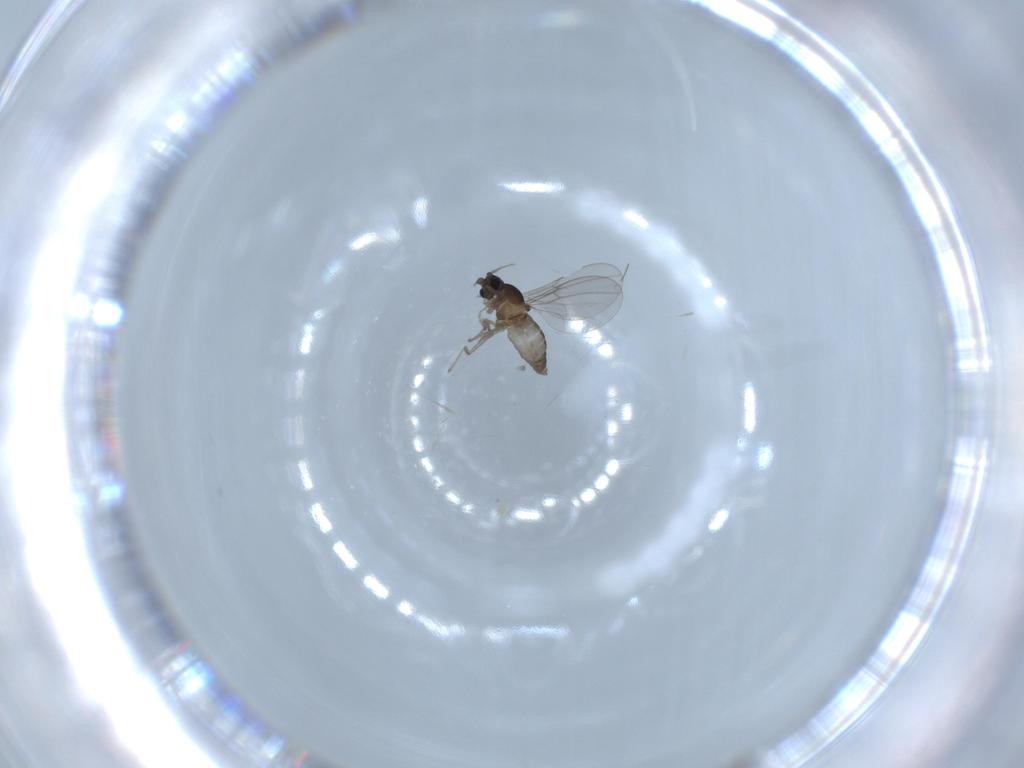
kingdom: Animalia
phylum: Arthropoda
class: Insecta
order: Diptera
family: Cecidomyiidae
